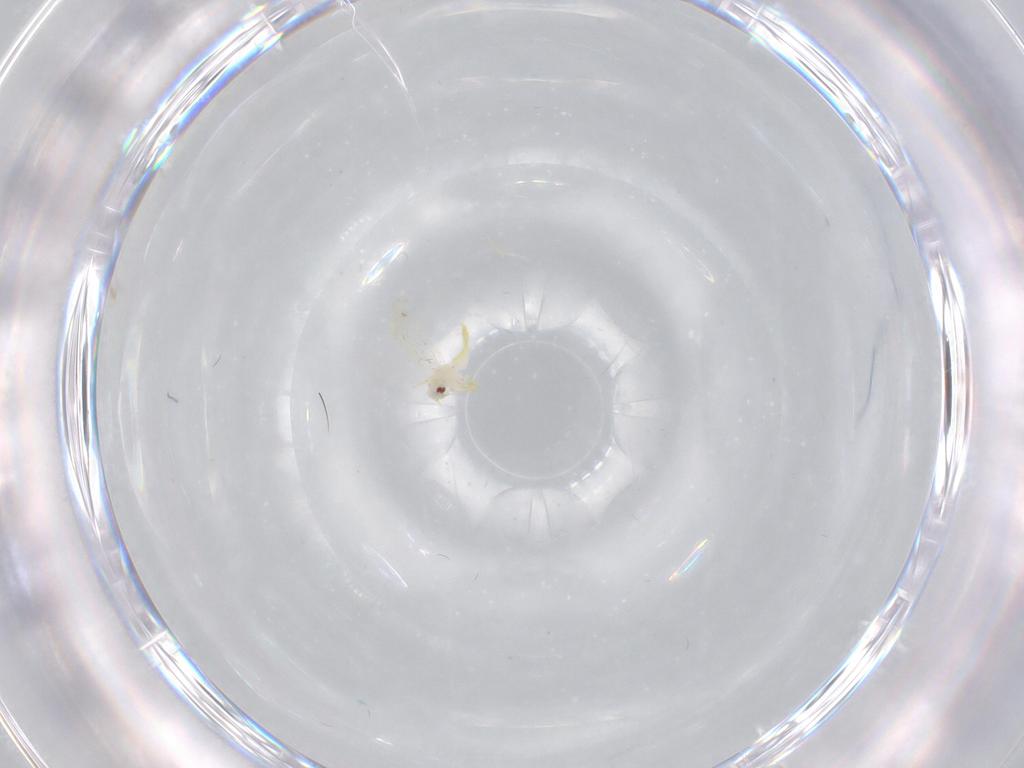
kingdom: Animalia
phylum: Arthropoda
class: Insecta
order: Hemiptera
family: Aleyrodidae
